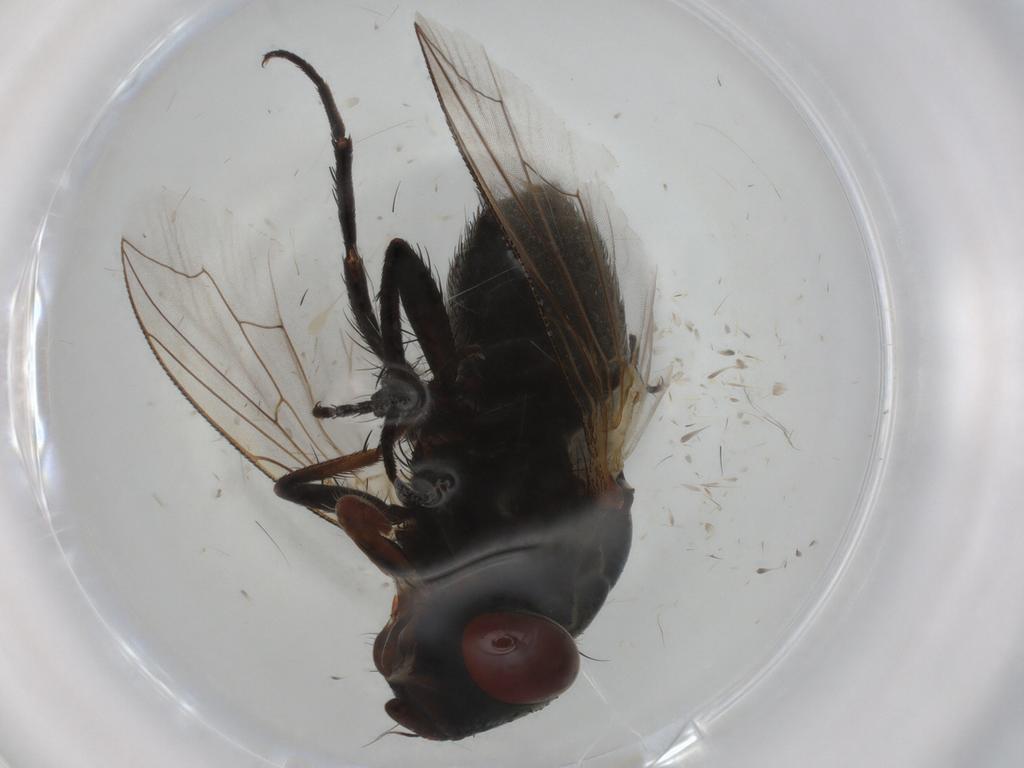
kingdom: Animalia
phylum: Arthropoda
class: Insecta
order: Diptera
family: Sarcophagidae
